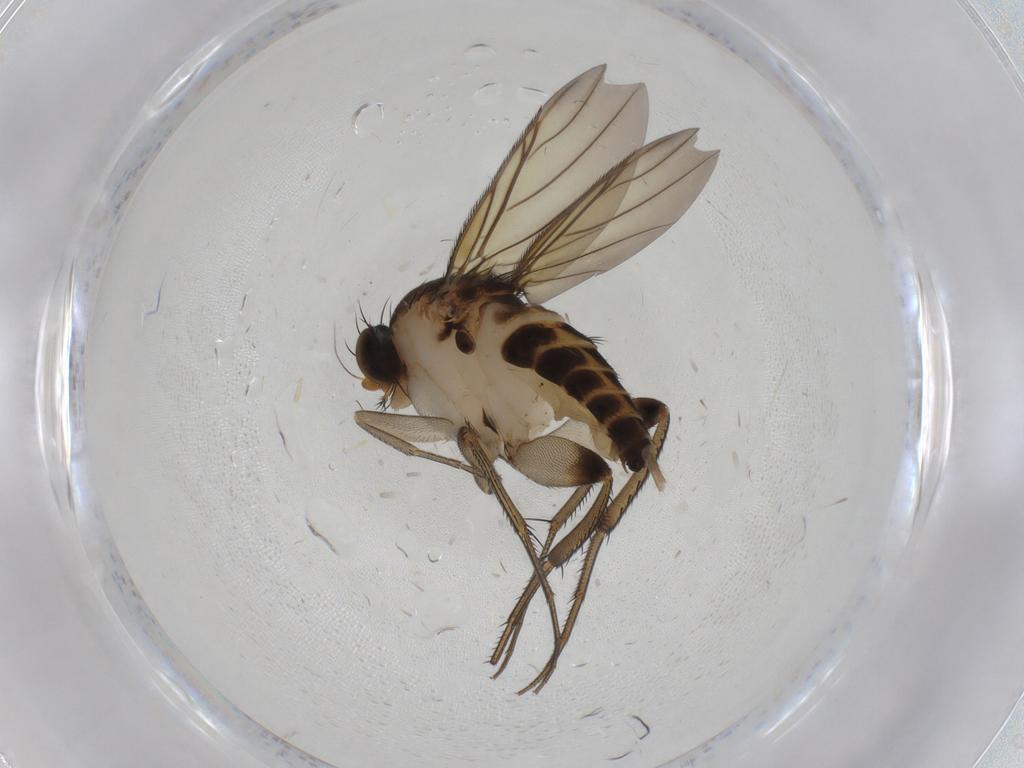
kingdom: Animalia
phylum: Arthropoda
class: Insecta
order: Diptera
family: Phoridae
